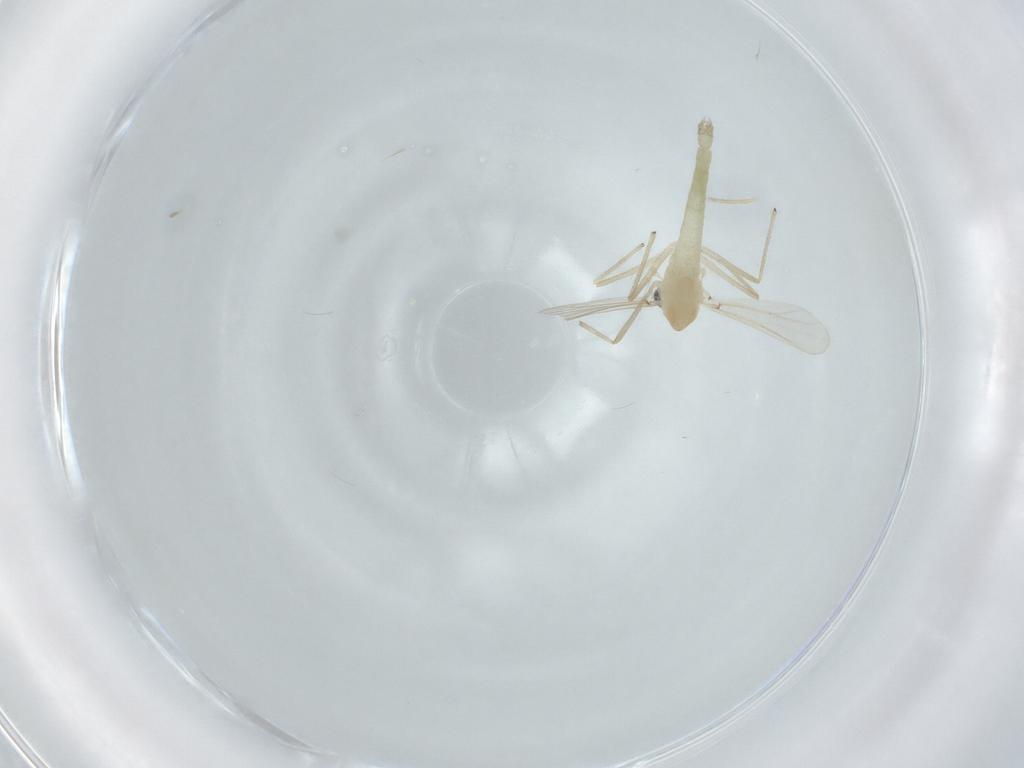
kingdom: Animalia
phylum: Arthropoda
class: Insecta
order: Diptera
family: Chironomidae
